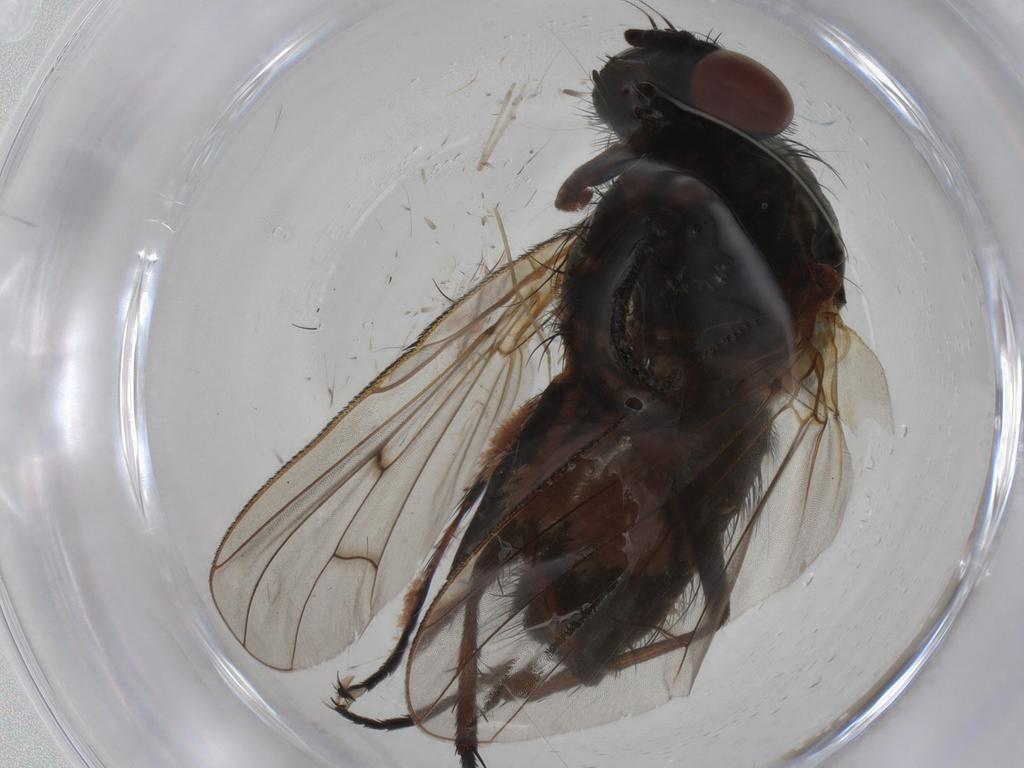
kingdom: Animalia
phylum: Arthropoda
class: Insecta
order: Diptera
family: Anthomyiidae
